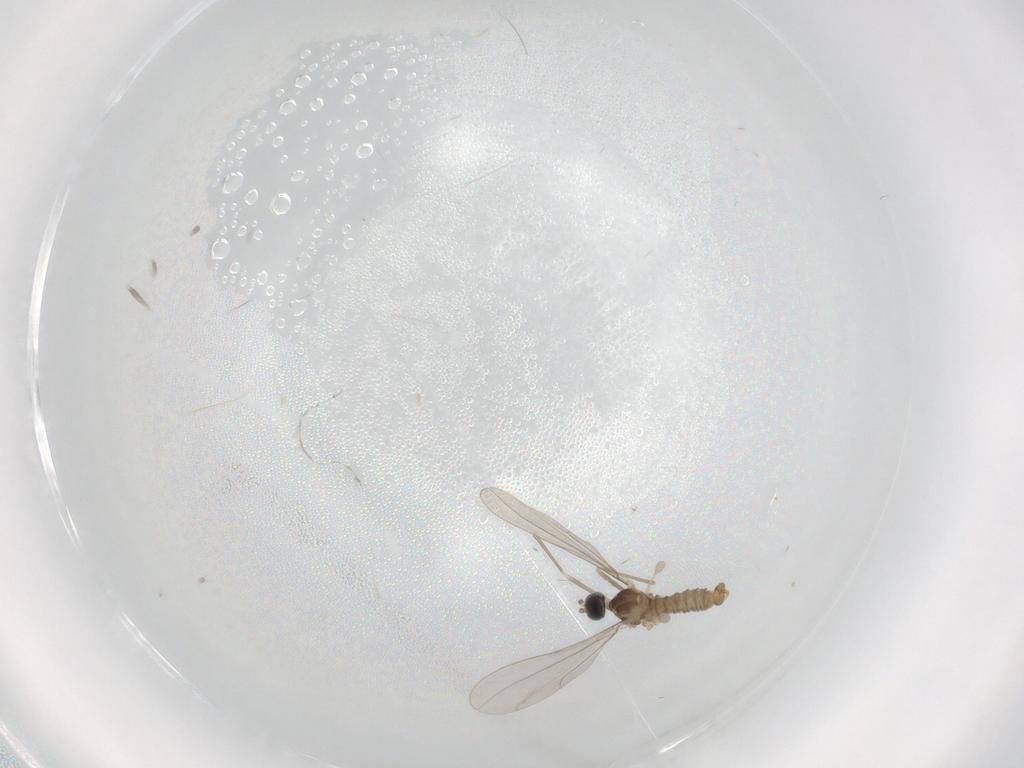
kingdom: Animalia
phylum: Arthropoda
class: Insecta
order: Diptera
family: Cecidomyiidae
